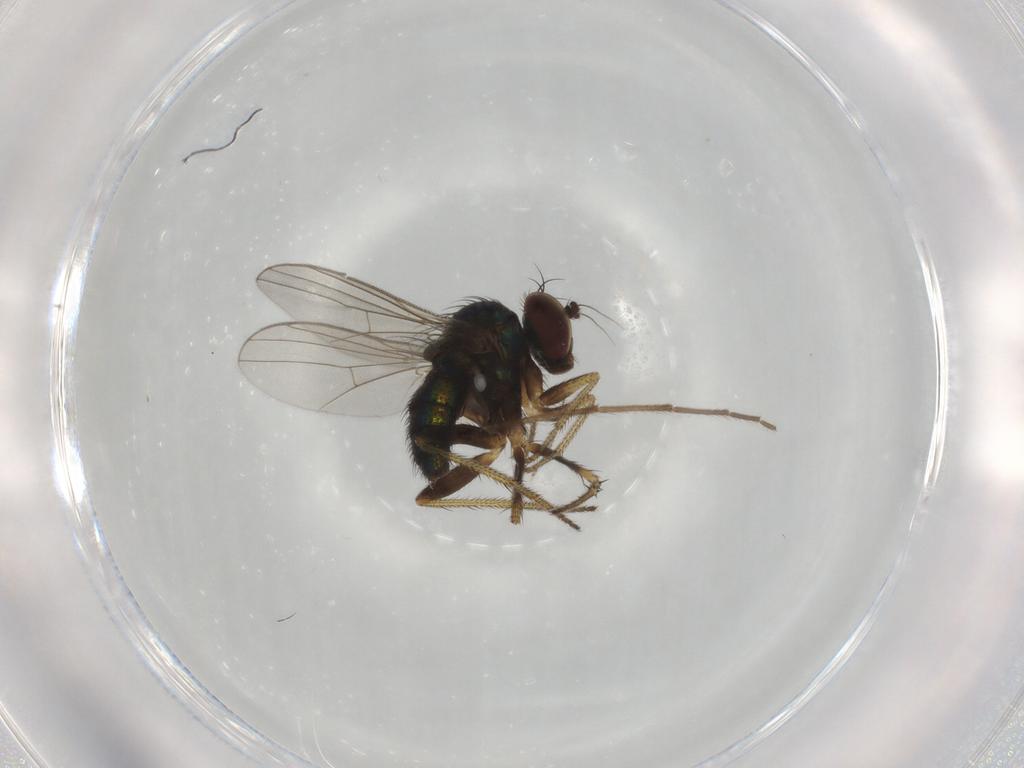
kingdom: Animalia
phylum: Arthropoda
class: Insecta
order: Diptera
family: Chironomidae
